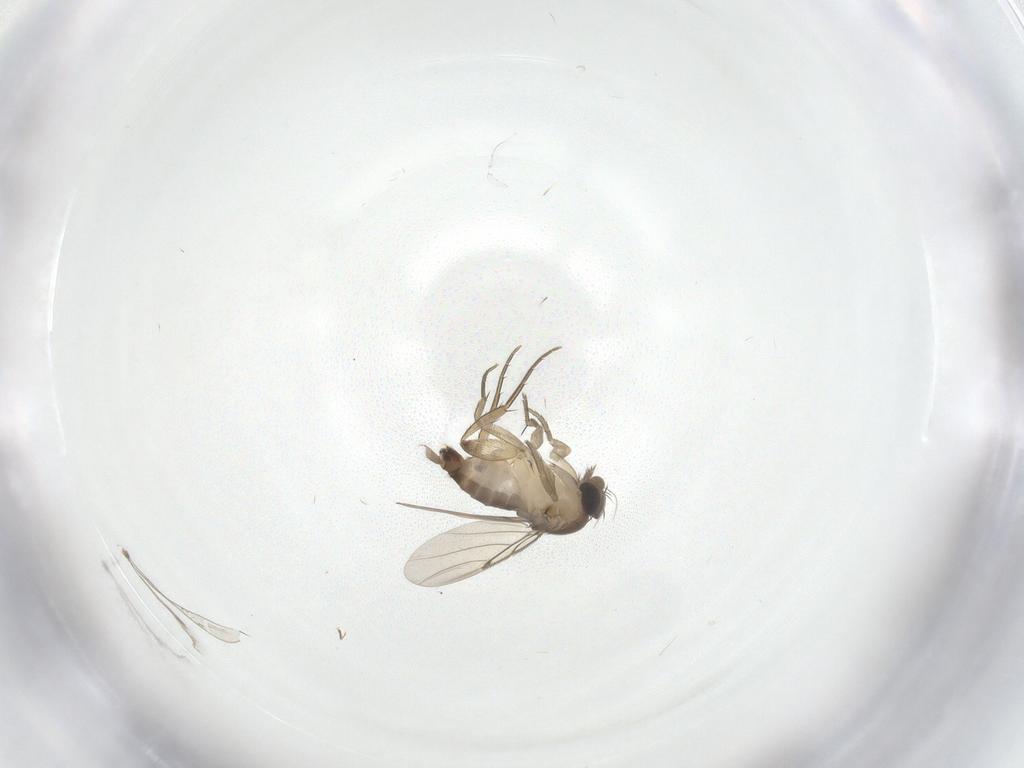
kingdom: Animalia
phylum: Arthropoda
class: Insecta
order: Diptera
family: Phoridae
